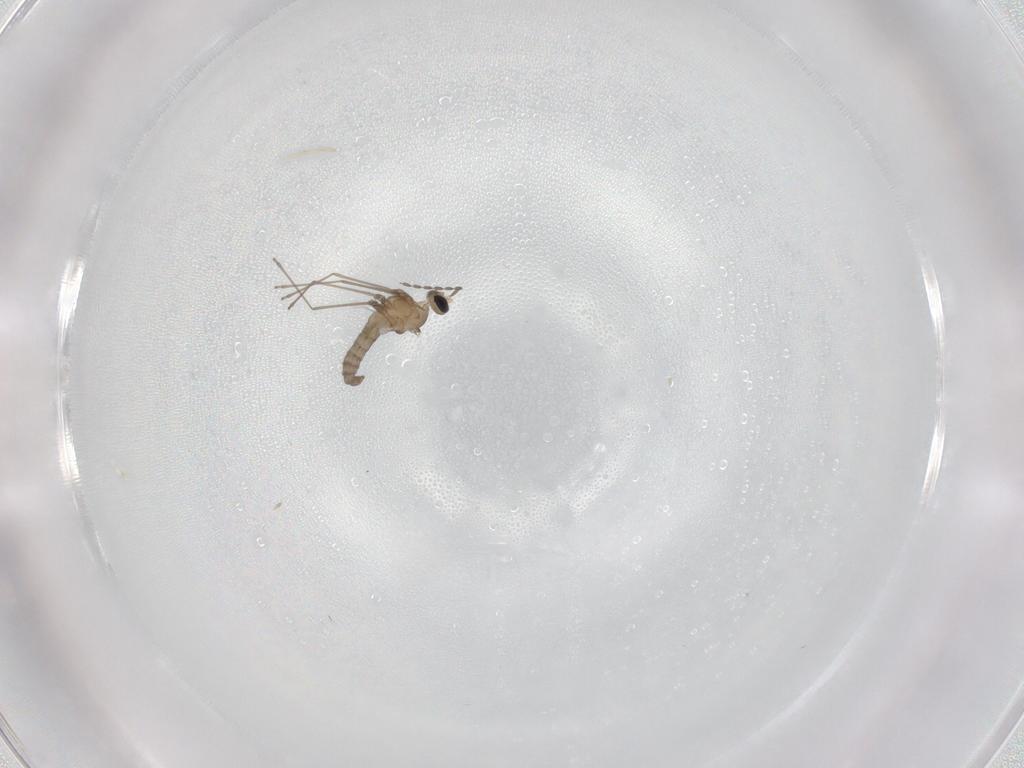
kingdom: Animalia
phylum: Arthropoda
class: Insecta
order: Diptera
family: Cecidomyiidae
